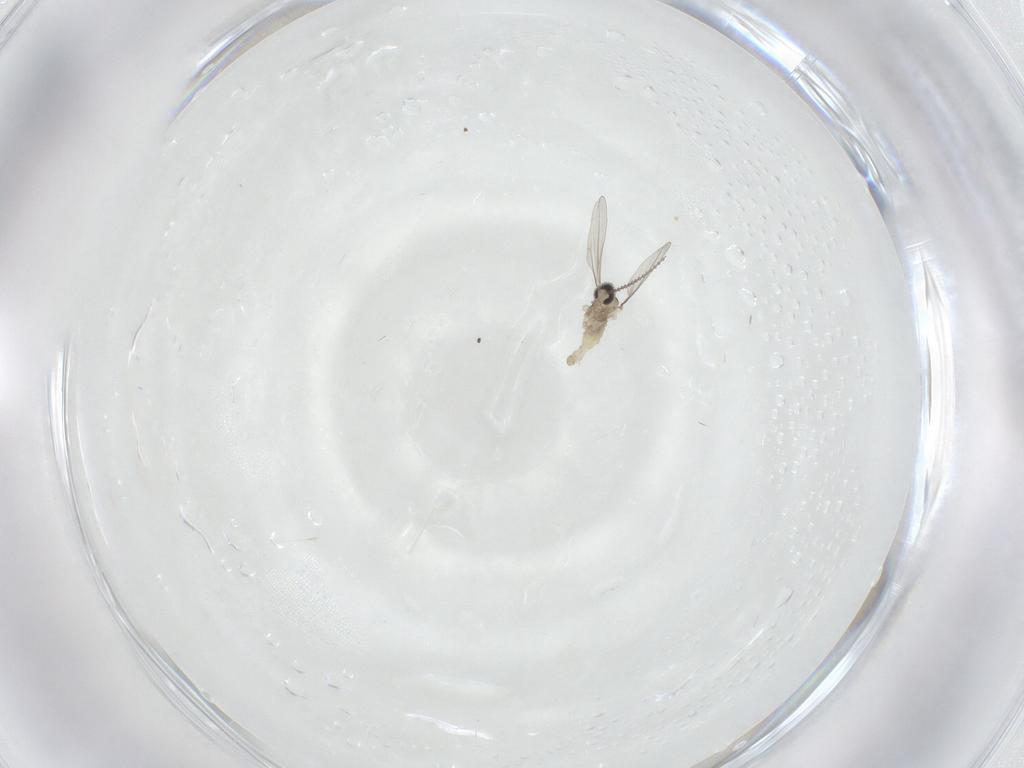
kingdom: Animalia
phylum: Arthropoda
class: Insecta
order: Diptera
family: Cecidomyiidae
